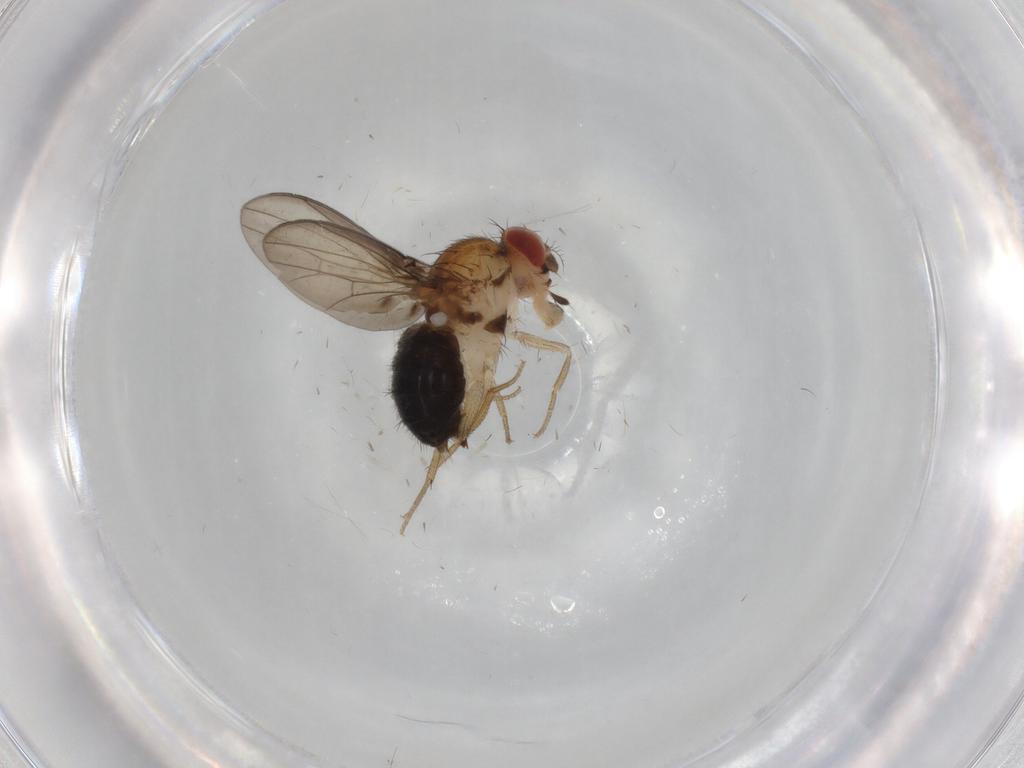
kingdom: Animalia
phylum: Arthropoda
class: Insecta
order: Diptera
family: Drosophilidae
